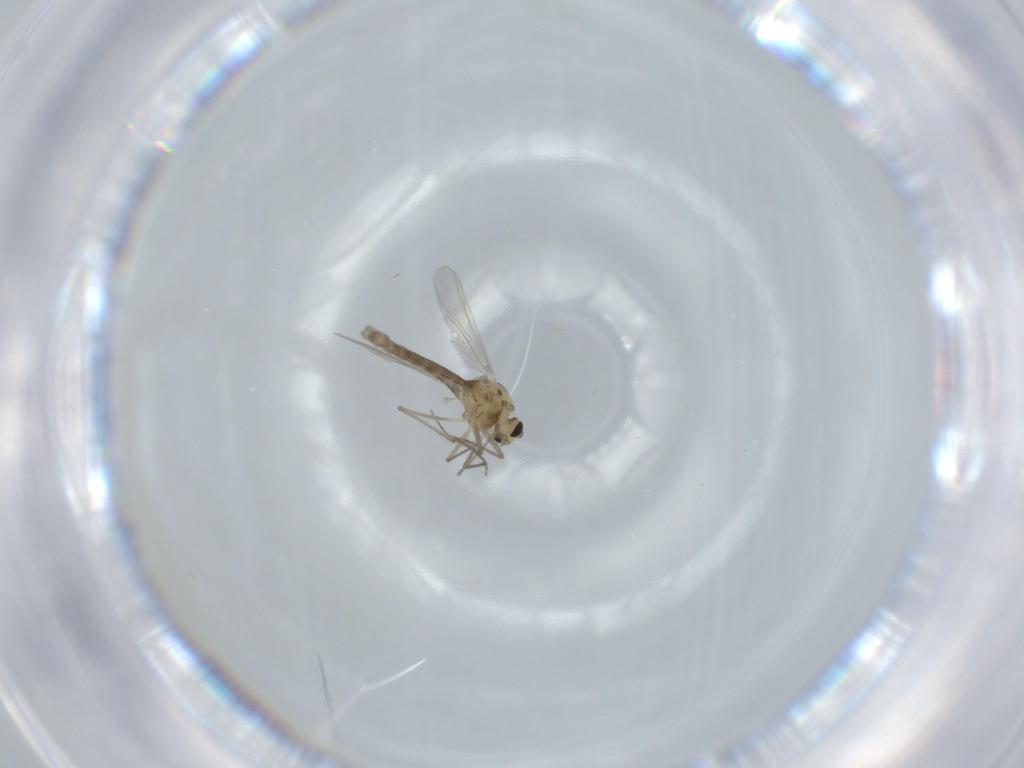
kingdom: Animalia
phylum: Arthropoda
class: Insecta
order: Diptera
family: Chironomidae
